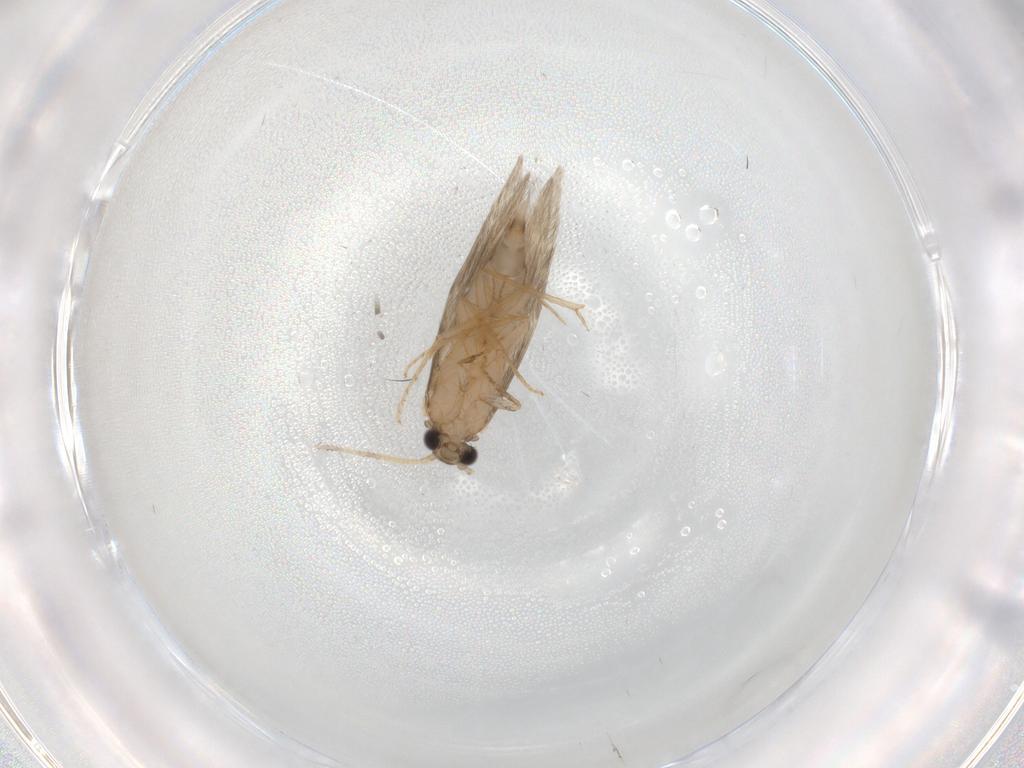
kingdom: Animalia
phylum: Arthropoda
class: Insecta
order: Trichoptera
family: Hydroptilidae
